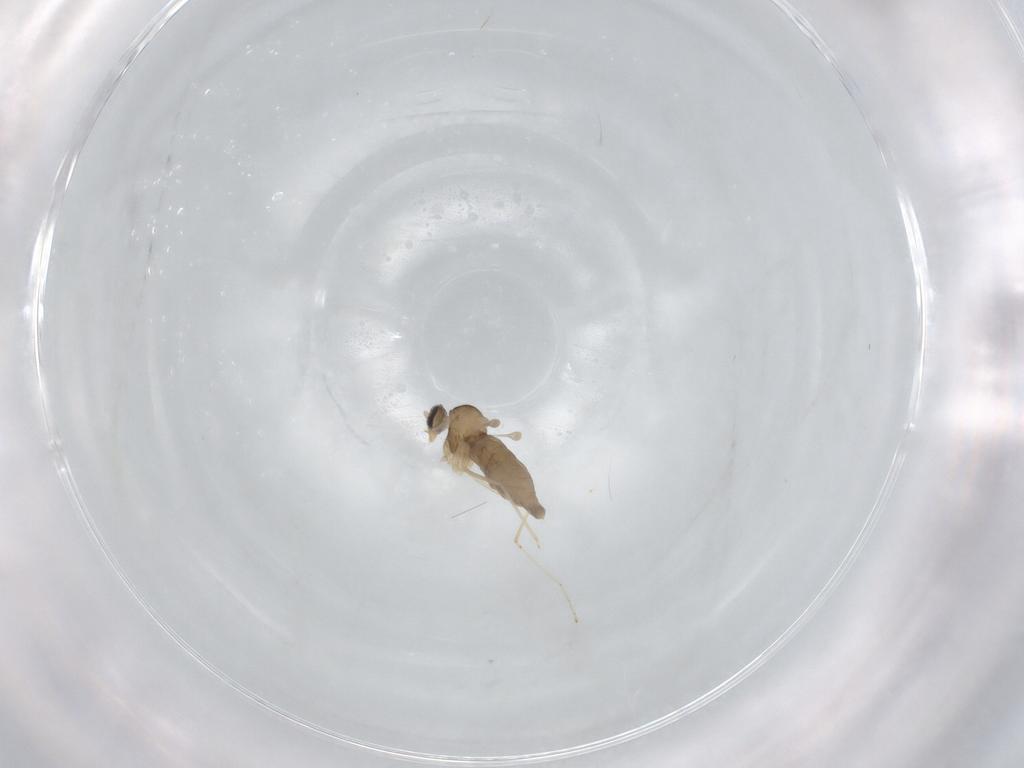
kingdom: Animalia
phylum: Arthropoda
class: Insecta
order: Diptera
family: Cecidomyiidae
